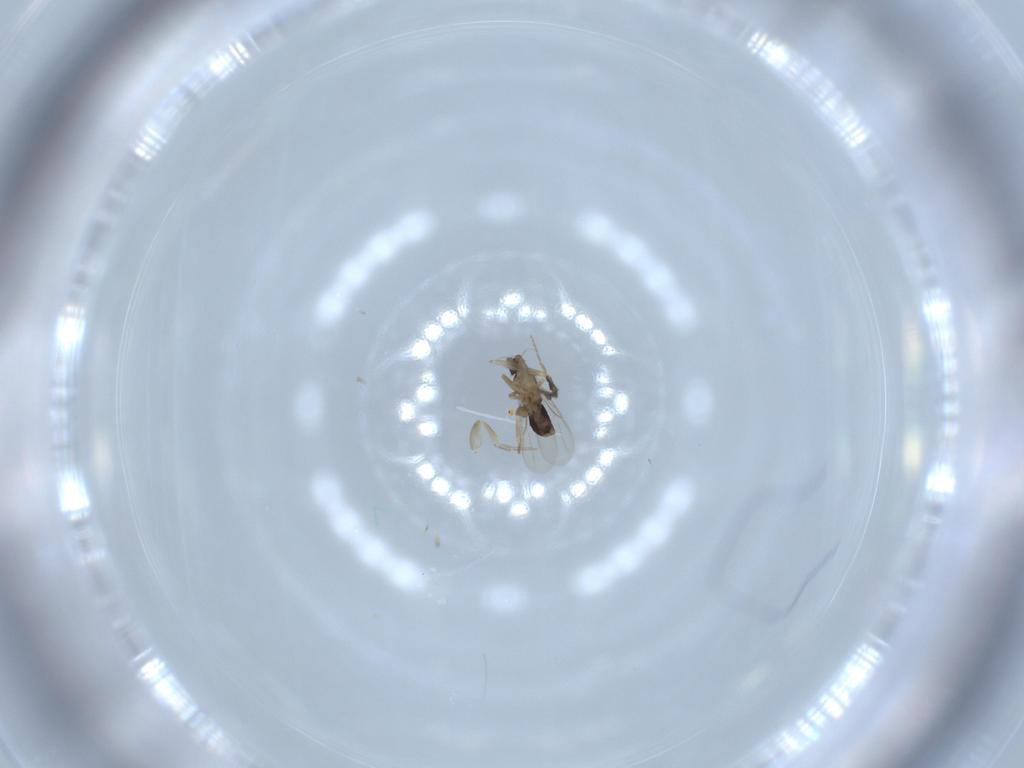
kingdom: Animalia
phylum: Arthropoda
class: Insecta
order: Diptera
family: Phoridae
